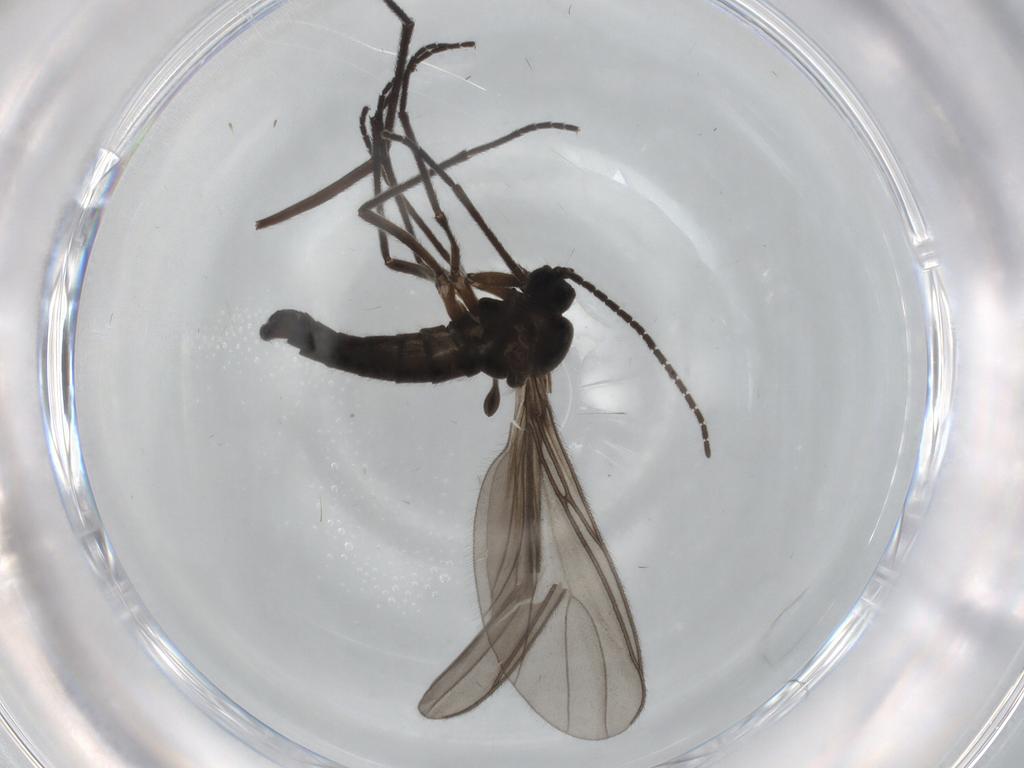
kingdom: Animalia
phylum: Arthropoda
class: Insecta
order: Diptera
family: Sciaridae
